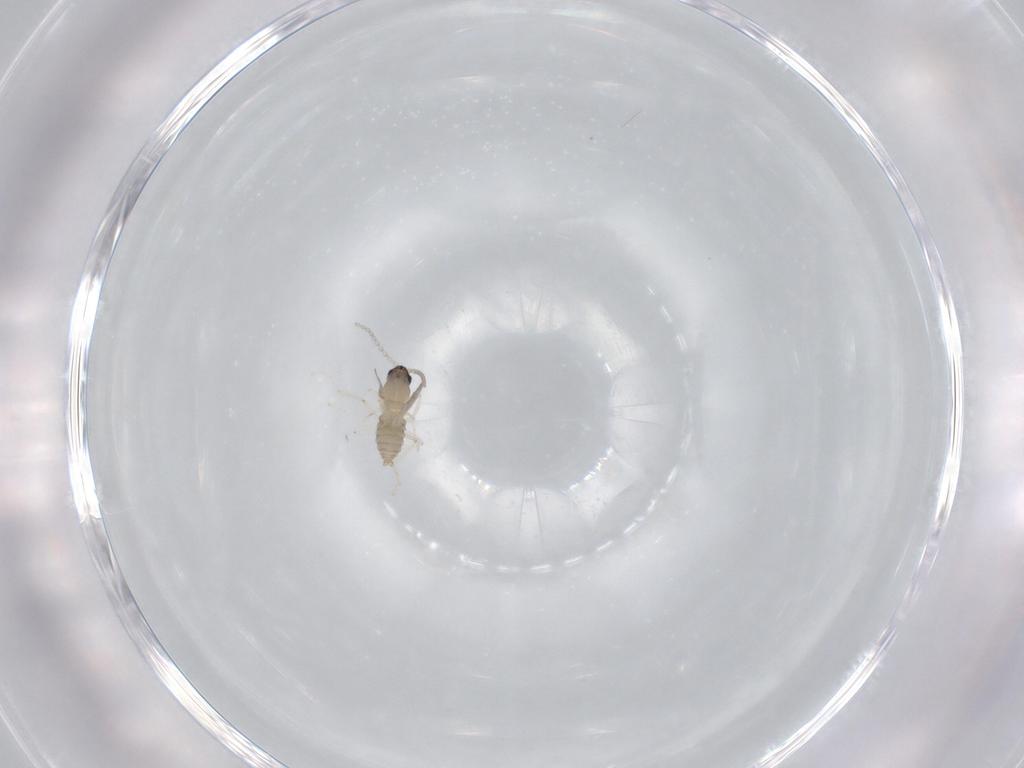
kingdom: Animalia
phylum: Arthropoda
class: Insecta
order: Diptera
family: Cecidomyiidae
